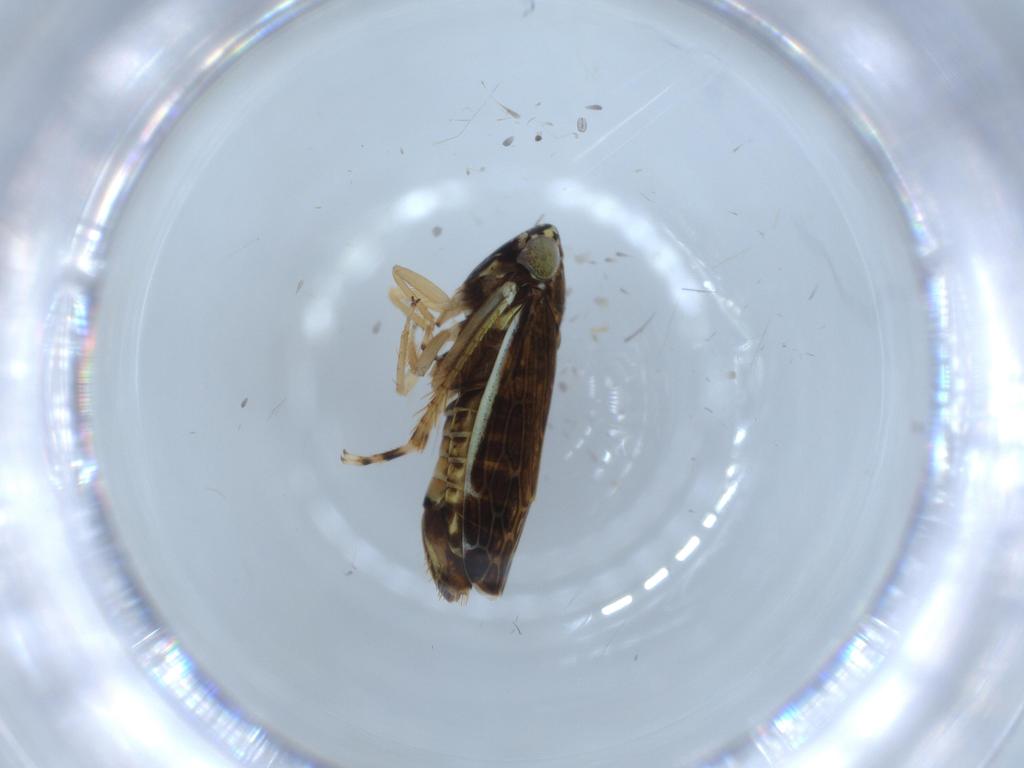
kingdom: Animalia
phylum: Arthropoda
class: Insecta
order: Hemiptera
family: Cicadellidae
